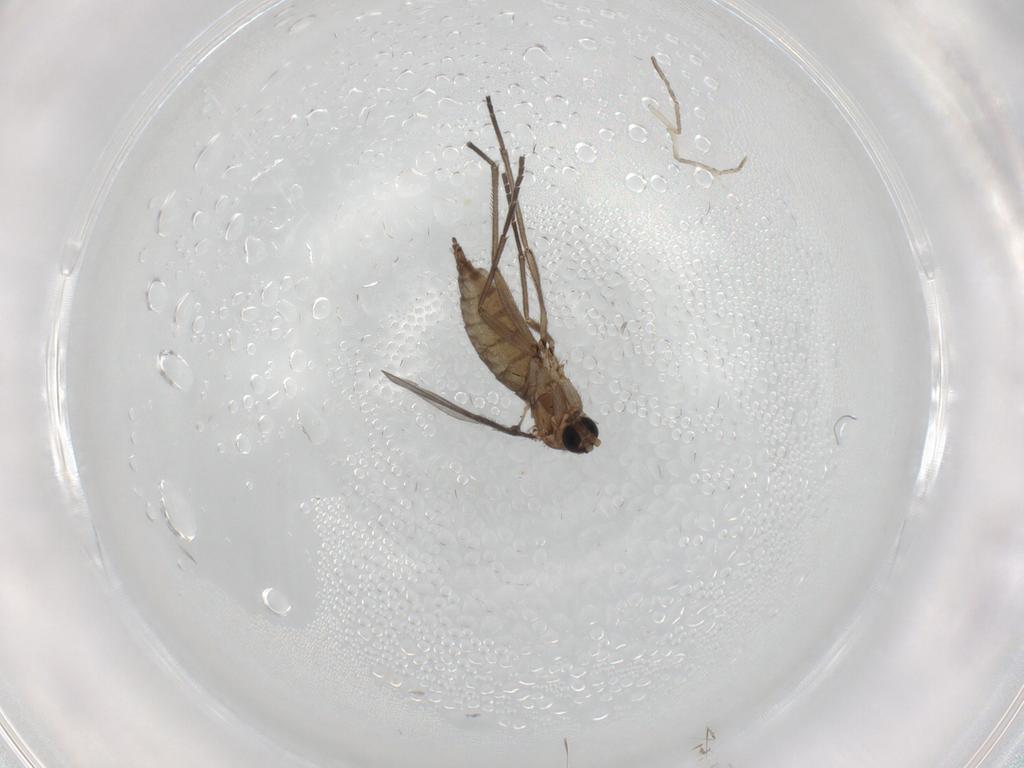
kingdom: Animalia
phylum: Arthropoda
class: Insecta
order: Diptera
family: Psychodidae
